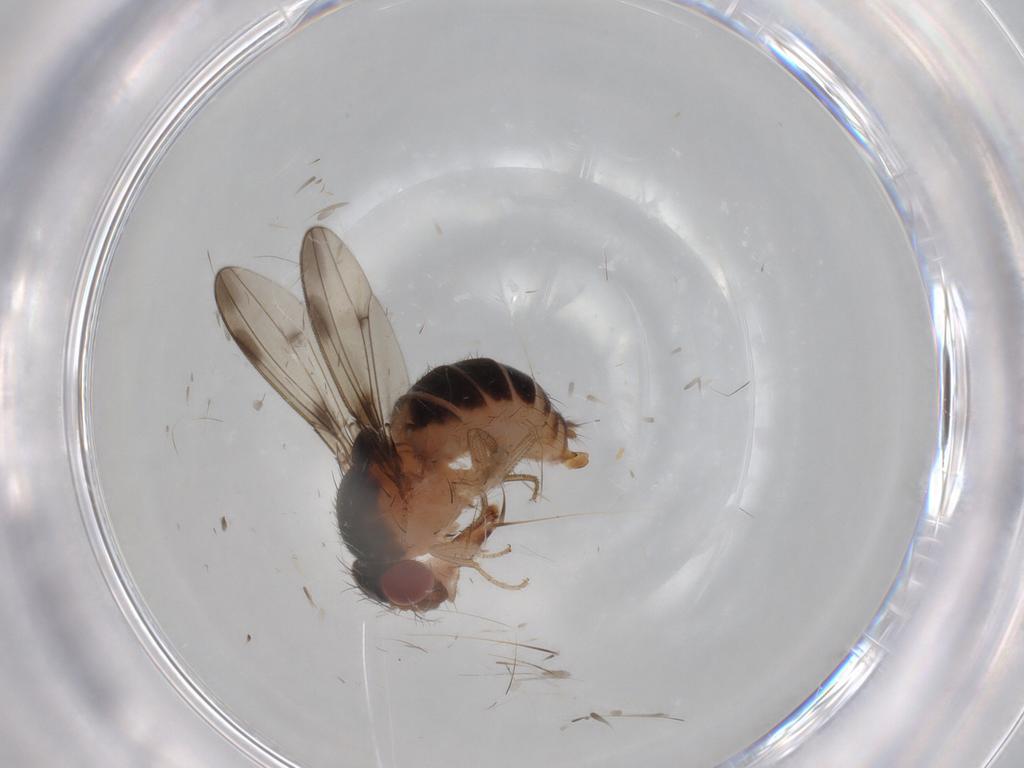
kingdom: Animalia
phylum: Arthropoda
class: Insecta
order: Diptera
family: Drosophilidae
